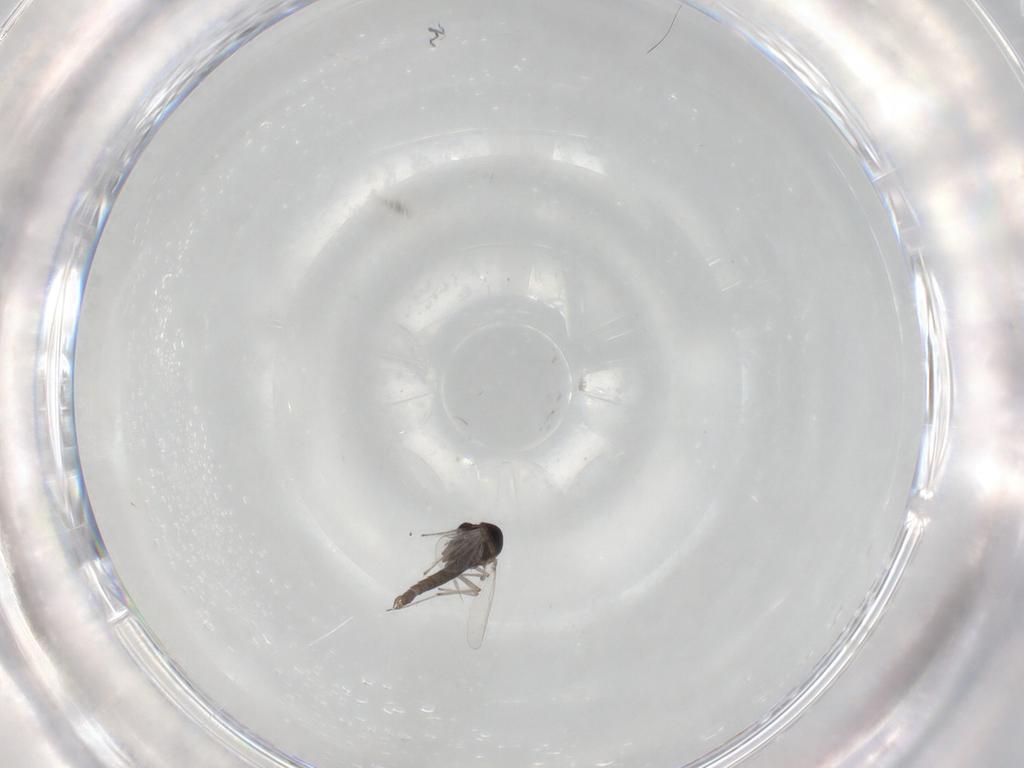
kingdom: Animalia
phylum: Arthropoda
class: Insecta
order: Diptera
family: Chironomidae
